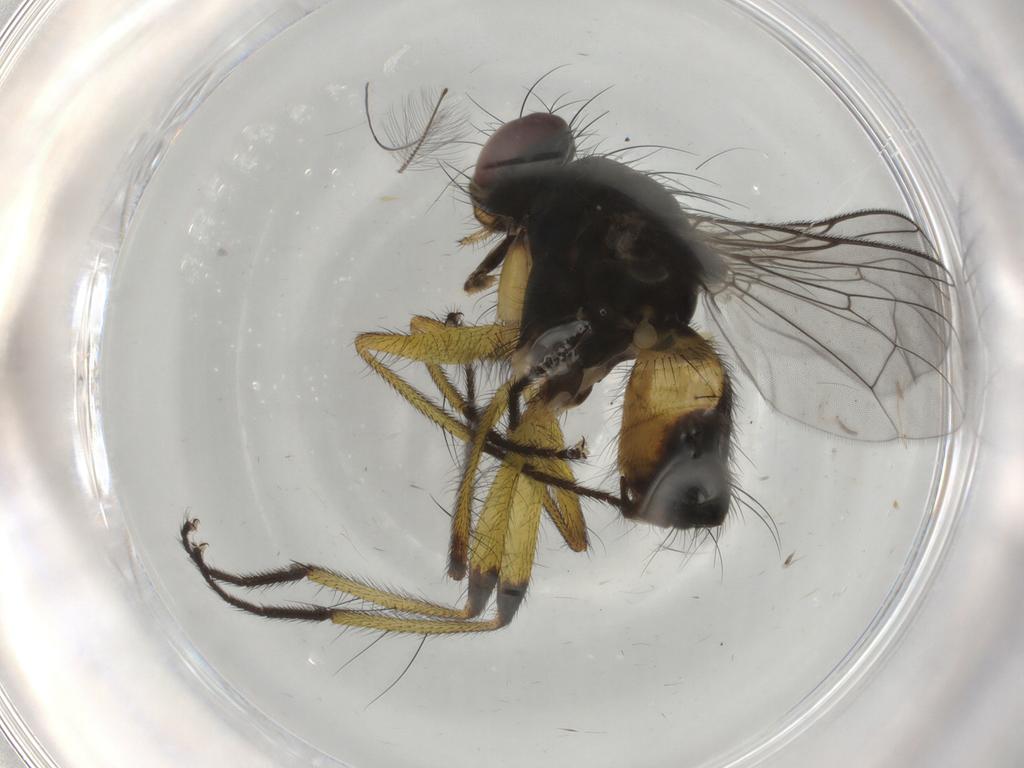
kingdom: Animalia
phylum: Arthropoda
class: Insecta
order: Diptera
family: Muscidae
